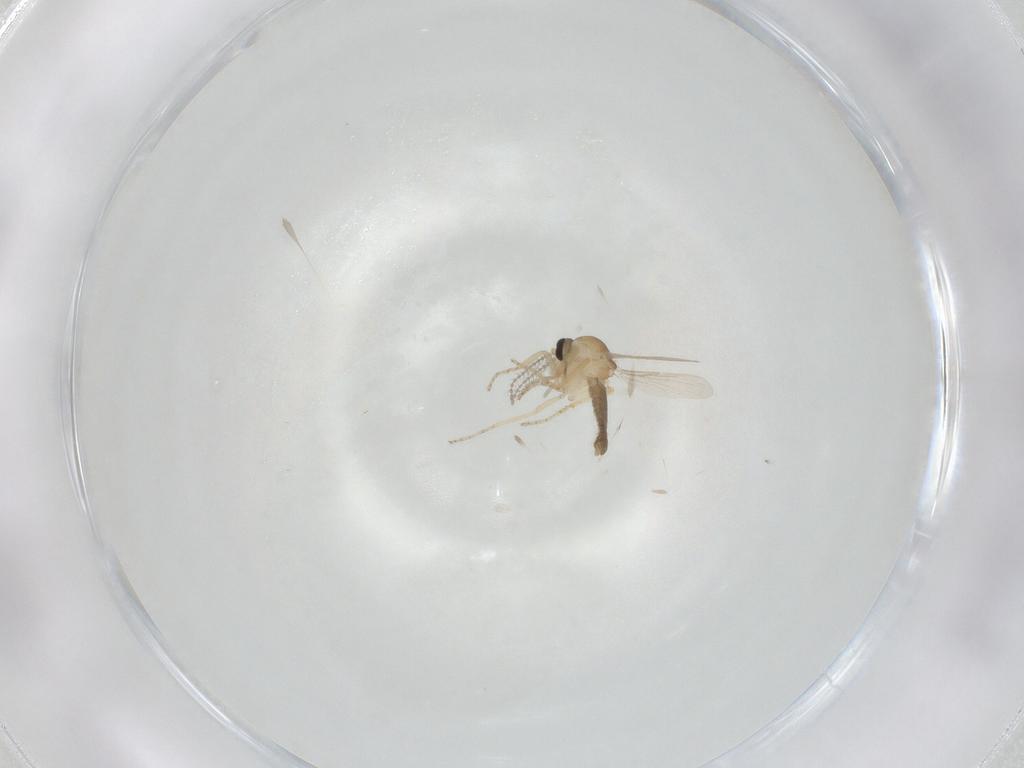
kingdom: Animalia
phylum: Arthropoda
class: Insecta
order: Diptera
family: Ceratopogonidae
